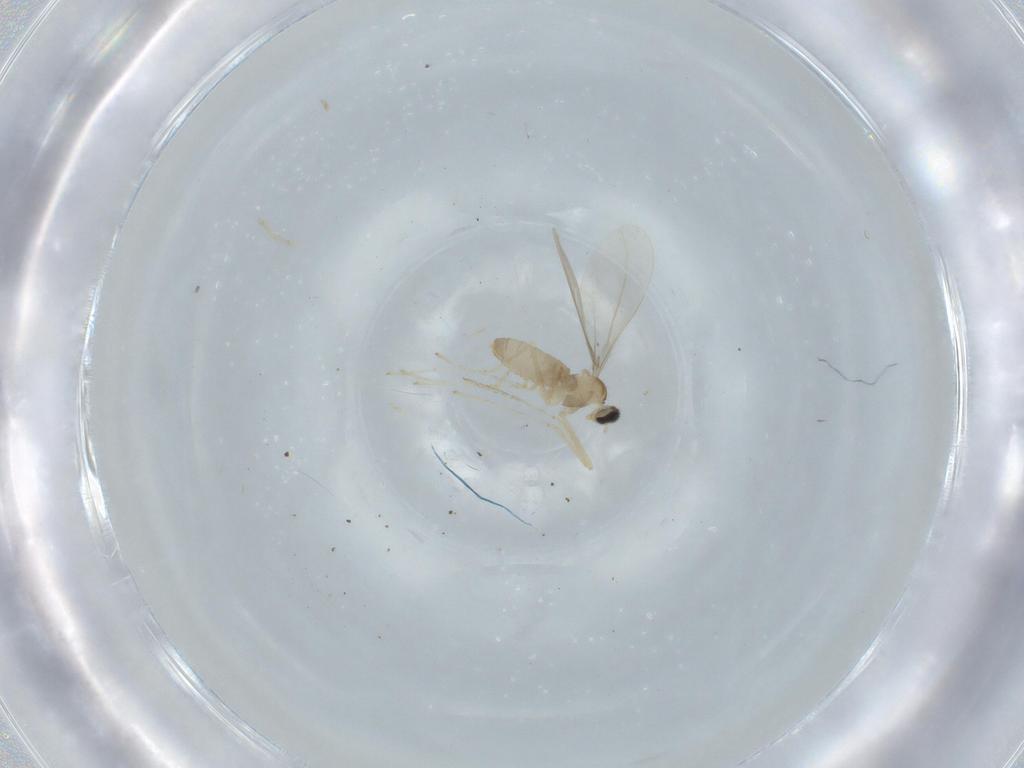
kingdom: Animalia
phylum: Arthropoda
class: Insecta
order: Diptera
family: Cecidomyiidae
